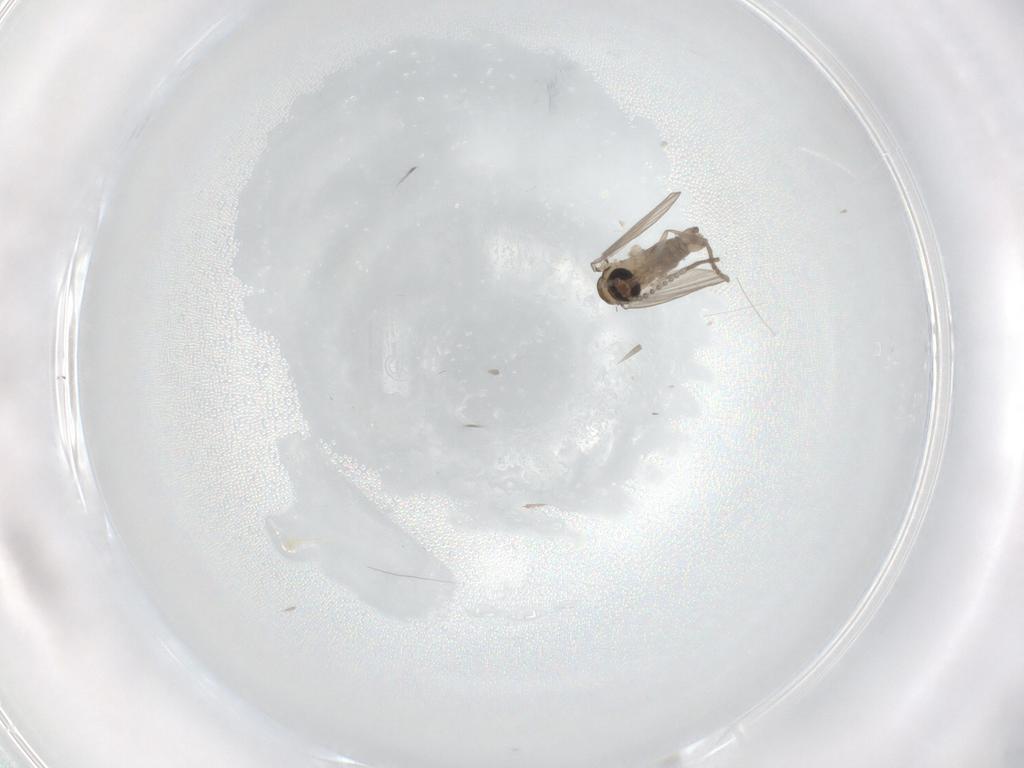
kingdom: Animalia
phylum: Arthropoda
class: Insecta
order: Diptera
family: Psychodidae
